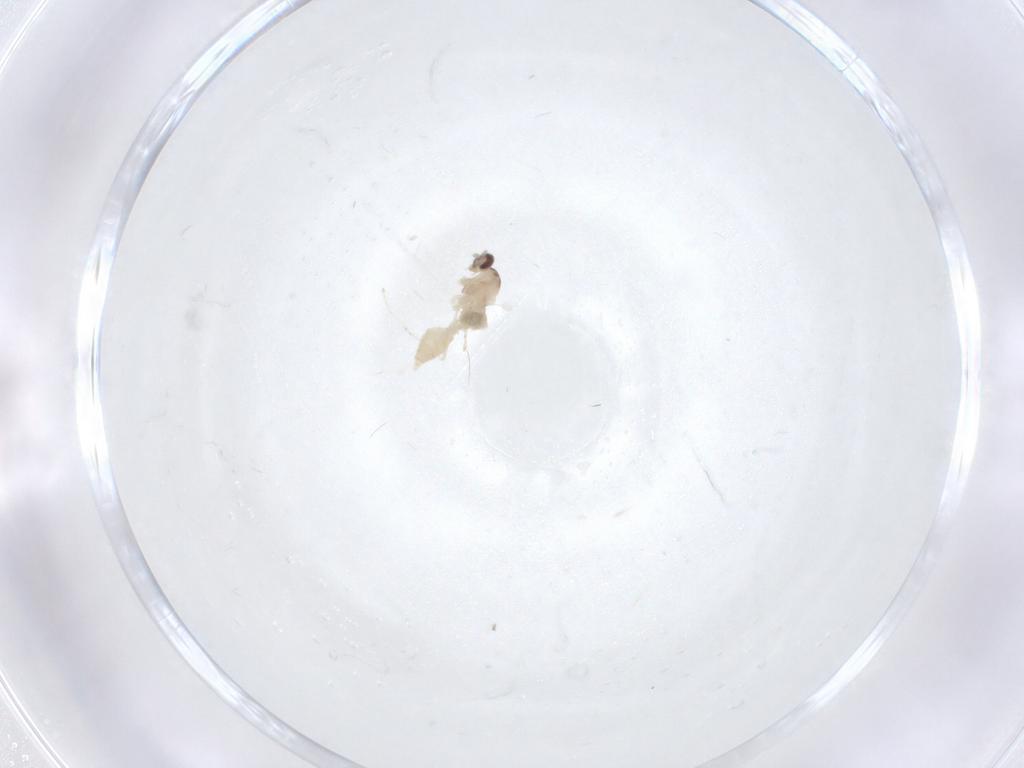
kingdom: Animalia
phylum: Arthropoda
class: Insecta
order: Diptera
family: Cecidomyiidae
